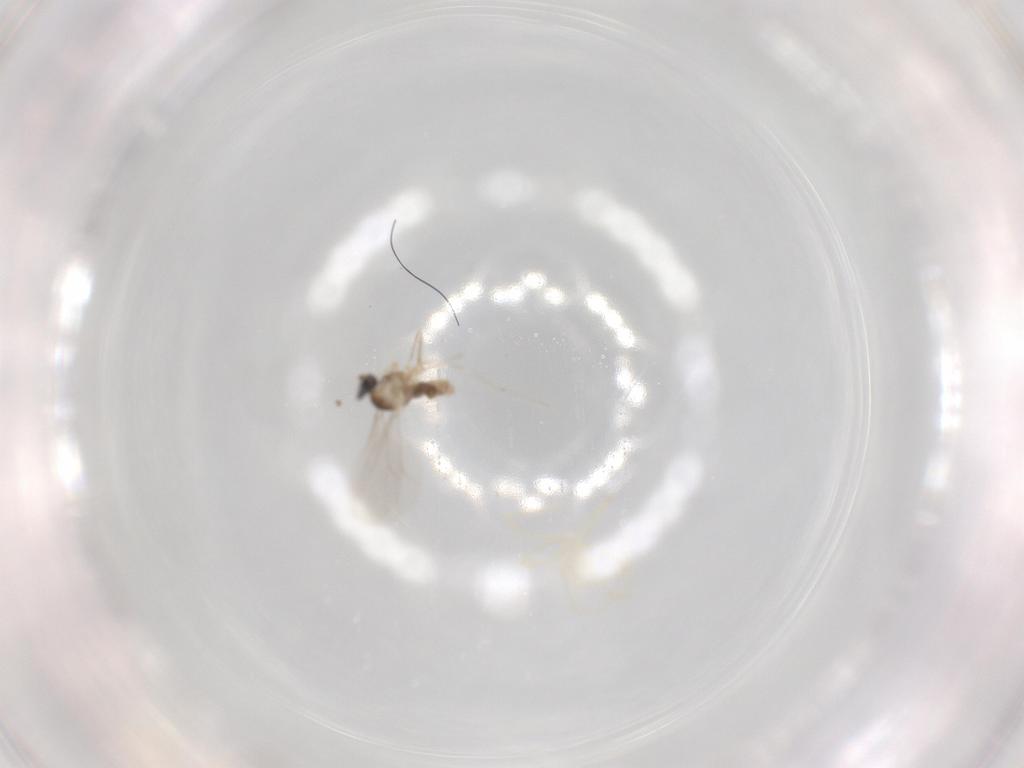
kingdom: Animalia
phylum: Arthropoda
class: Insecta
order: Diptera
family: Cecidomyiidae
